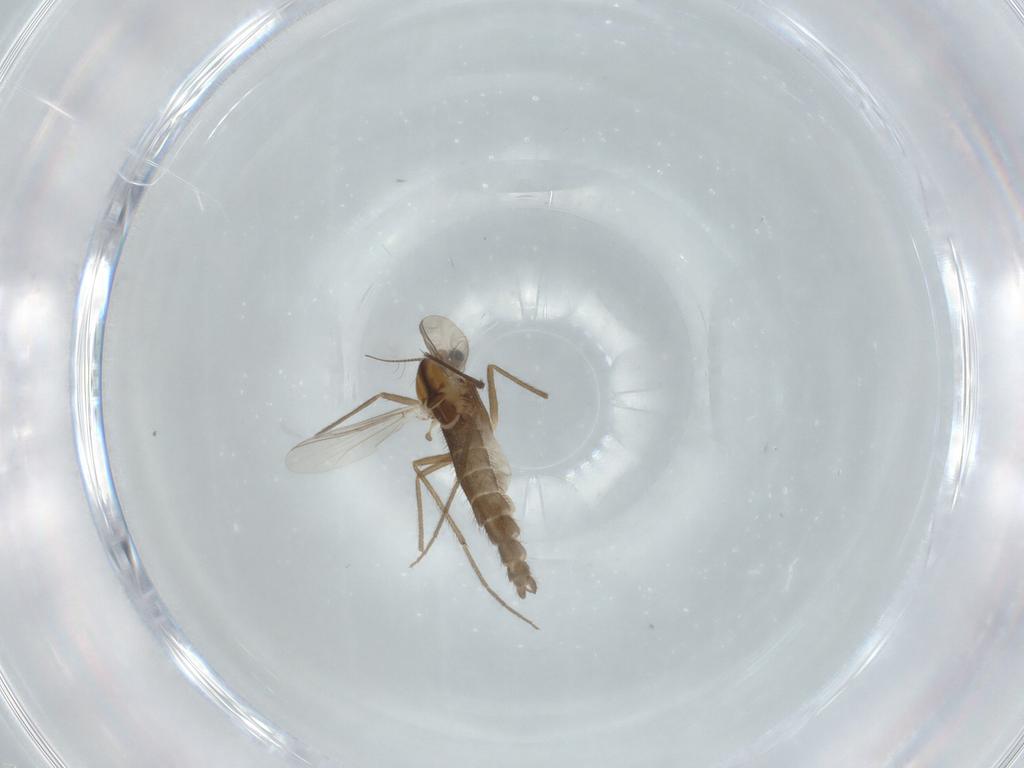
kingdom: Animalia
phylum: Arthropoda
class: Insecta
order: Diptera
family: Chironomidae
